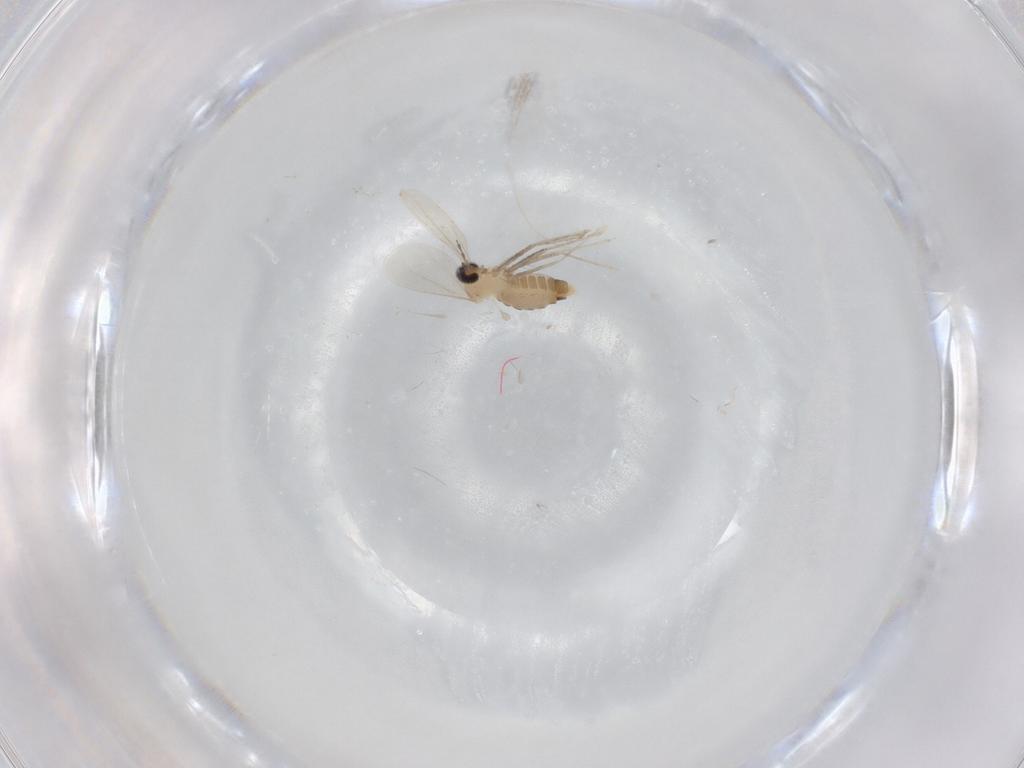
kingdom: Animalia
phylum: Arthropoda
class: Insecta
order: Diptera
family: Cecidomyiidae
